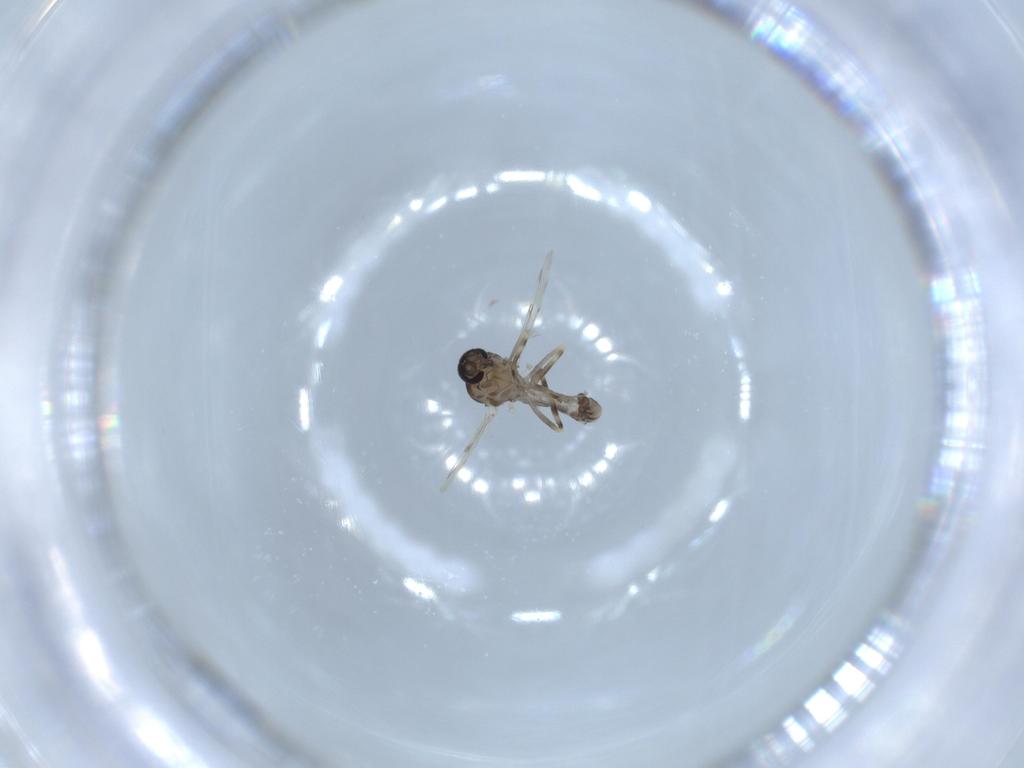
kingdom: Animalia
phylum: Arthropoda
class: Insecta
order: Diptera
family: Ceratopogonidae
